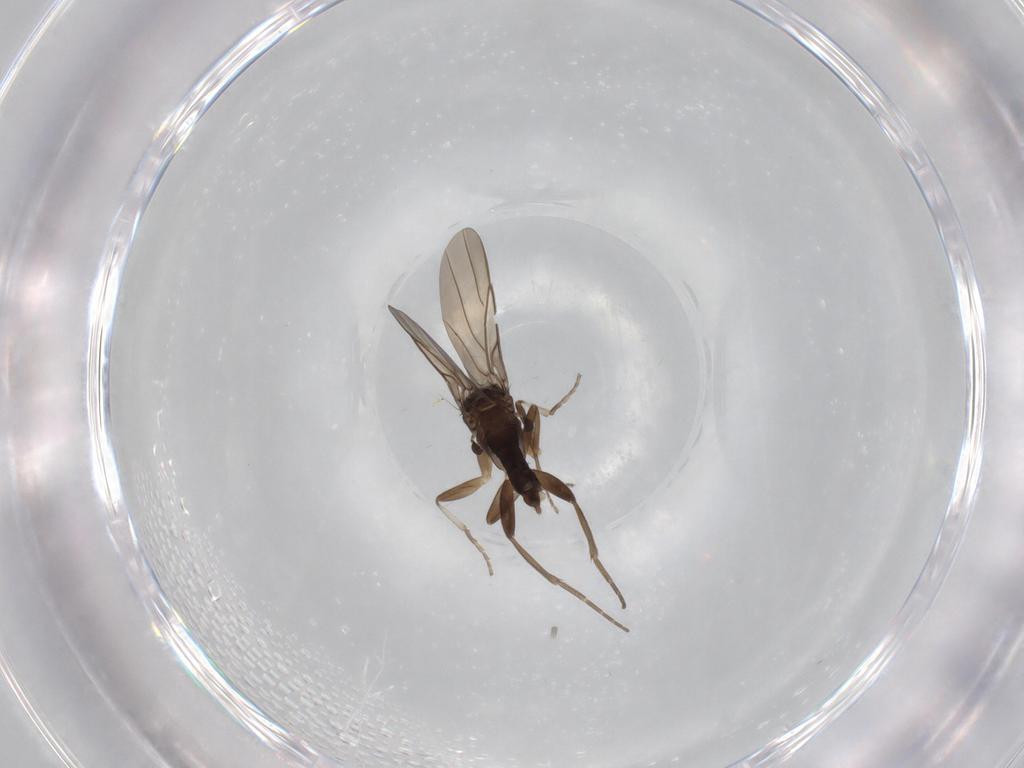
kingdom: Animalia
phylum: Arthropoda
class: Insecta
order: Diptera
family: Phoridae
